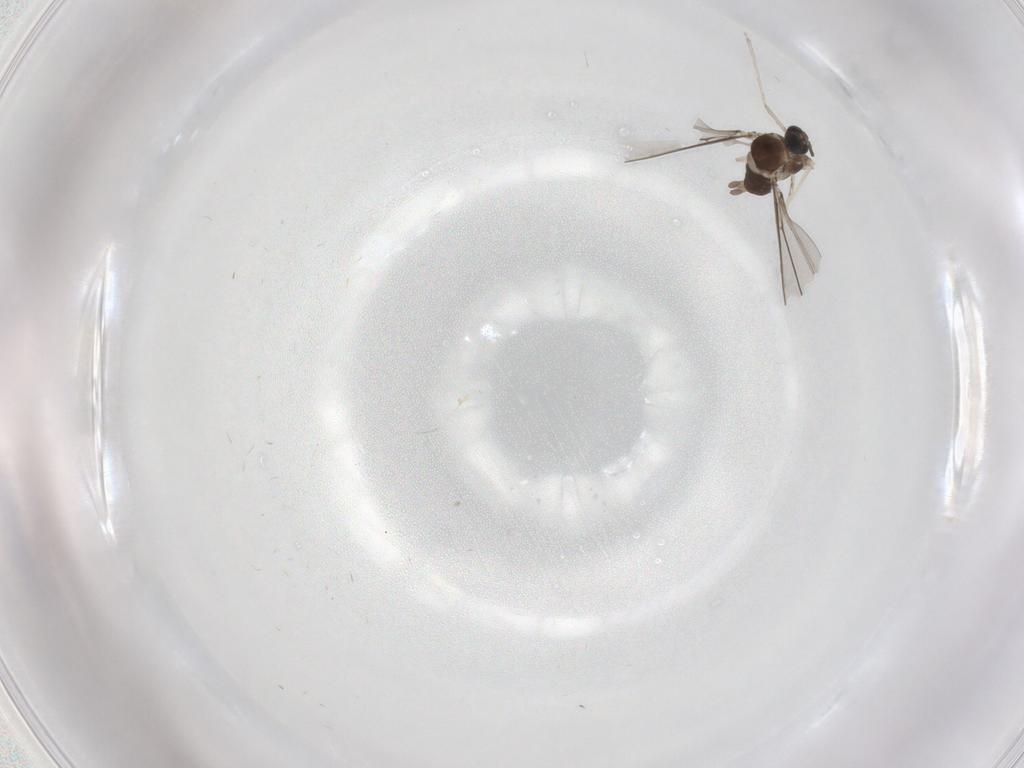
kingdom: Animalia
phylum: Arthropoda
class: Insecta
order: Diptera
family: Cecidomyiidae
